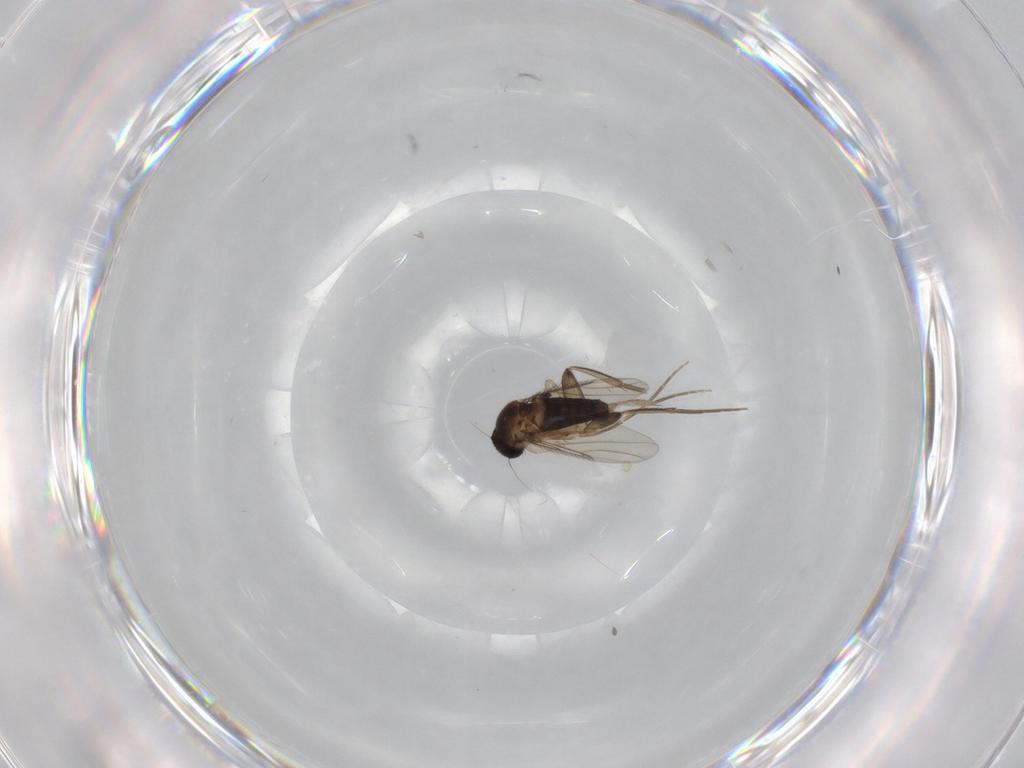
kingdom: Animalia
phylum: Arthropoda
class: Insecta
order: Diptera
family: Phoridae
